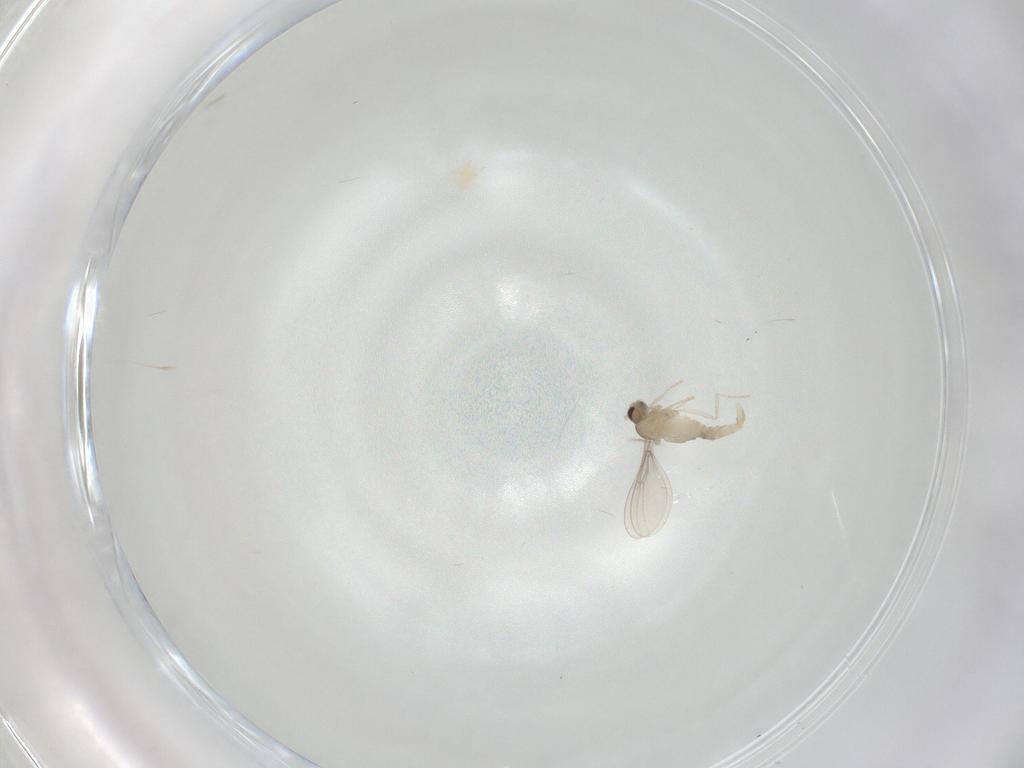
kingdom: Animalia
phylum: Arthropoda
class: Insecta
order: Diptera
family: Cecidomyiidae
